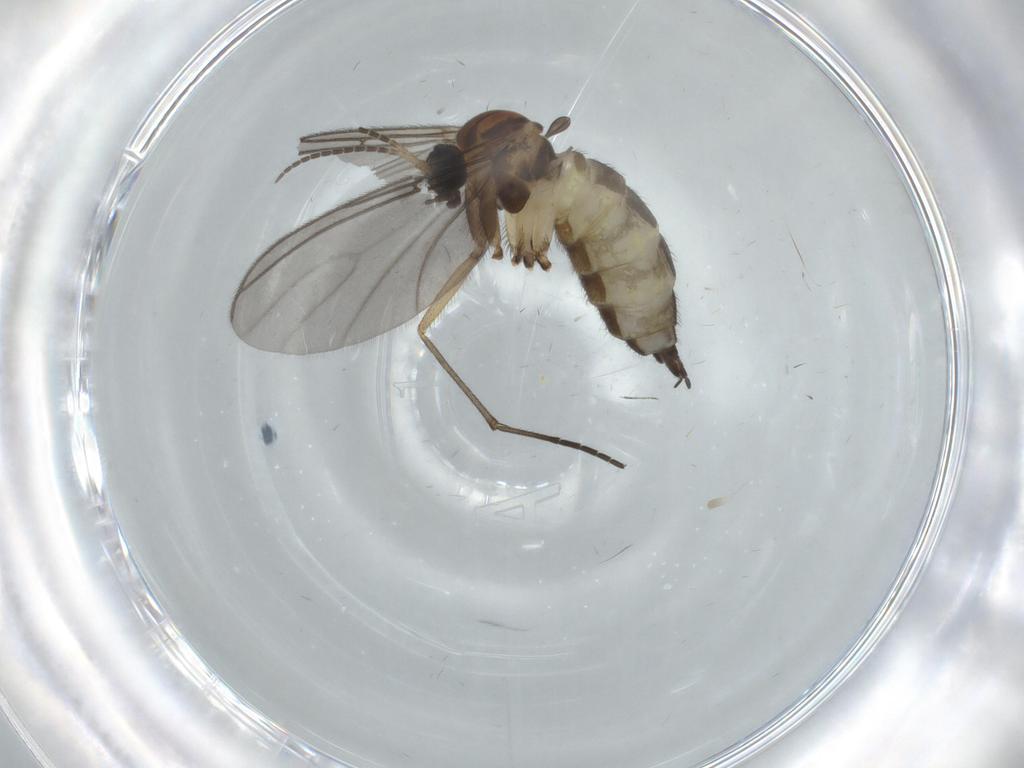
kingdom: Animalia
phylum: Arthropoda
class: Insecta
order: Diptera
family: Sciaridae
